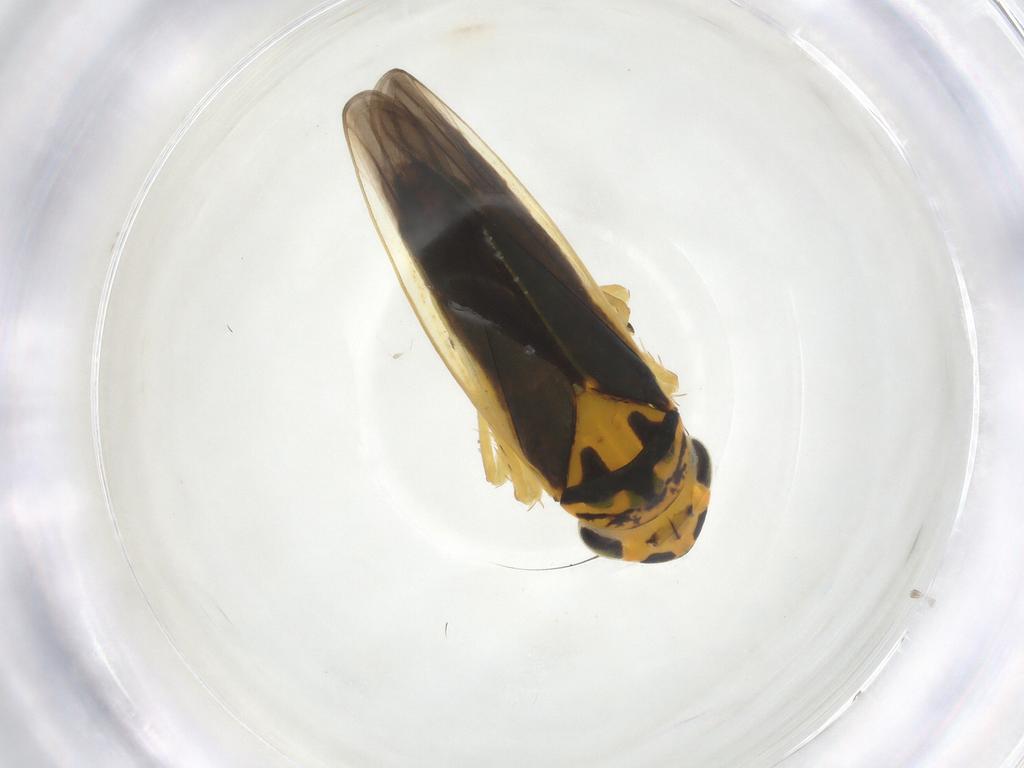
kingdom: Animalia
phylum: Arthropoda
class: Insecta
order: Hemiptera
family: Cicadellidae
